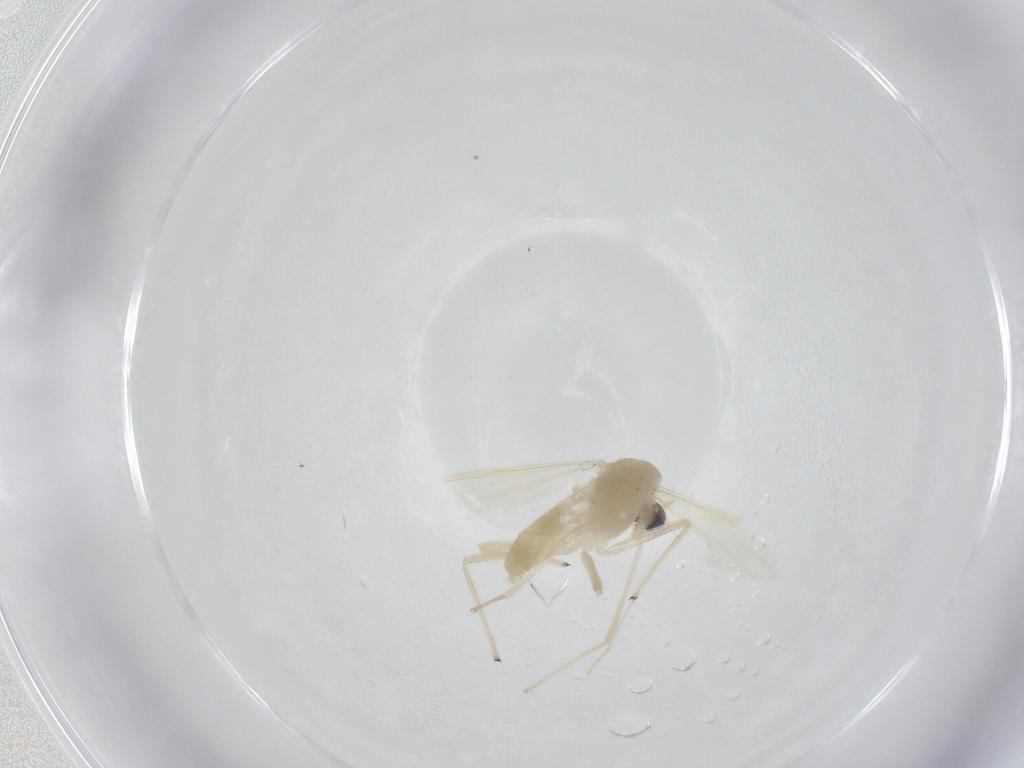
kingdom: Animalia
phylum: Arthropoda
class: Insecta
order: Diptera
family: Chironomidae
